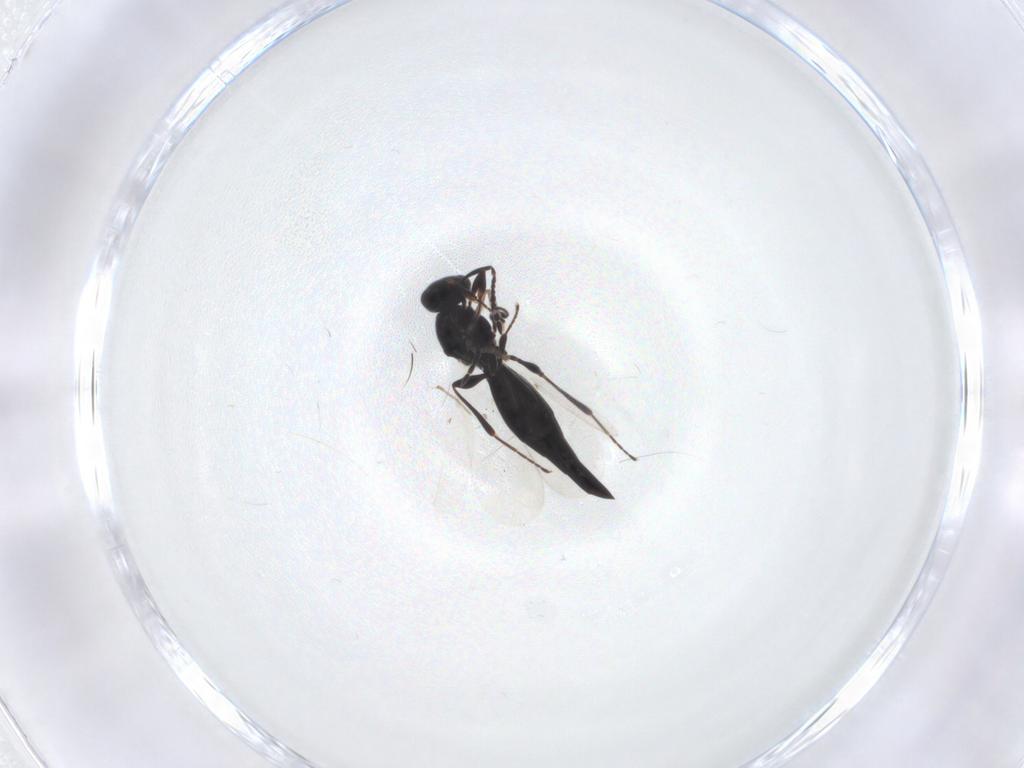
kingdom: Animalia
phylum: Arthropoda
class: Insecta
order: Hymenoptera
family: Platygastridae
